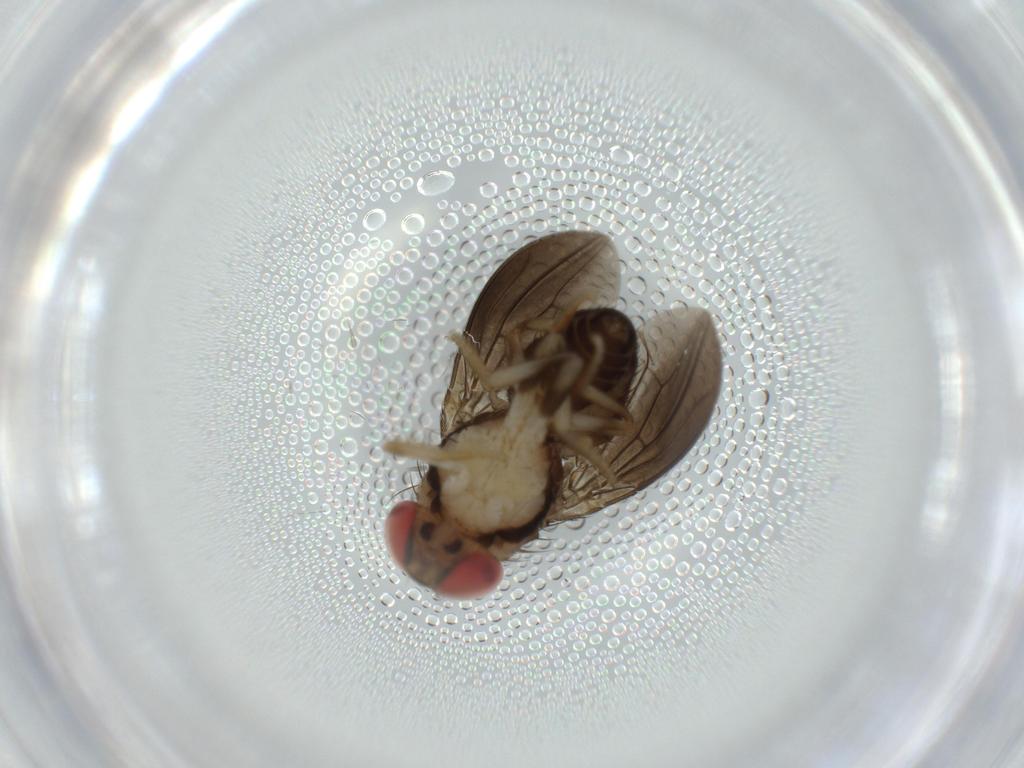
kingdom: Animalia
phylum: Arthropoda
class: Insecta
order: Diptera
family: Drosophilidae
